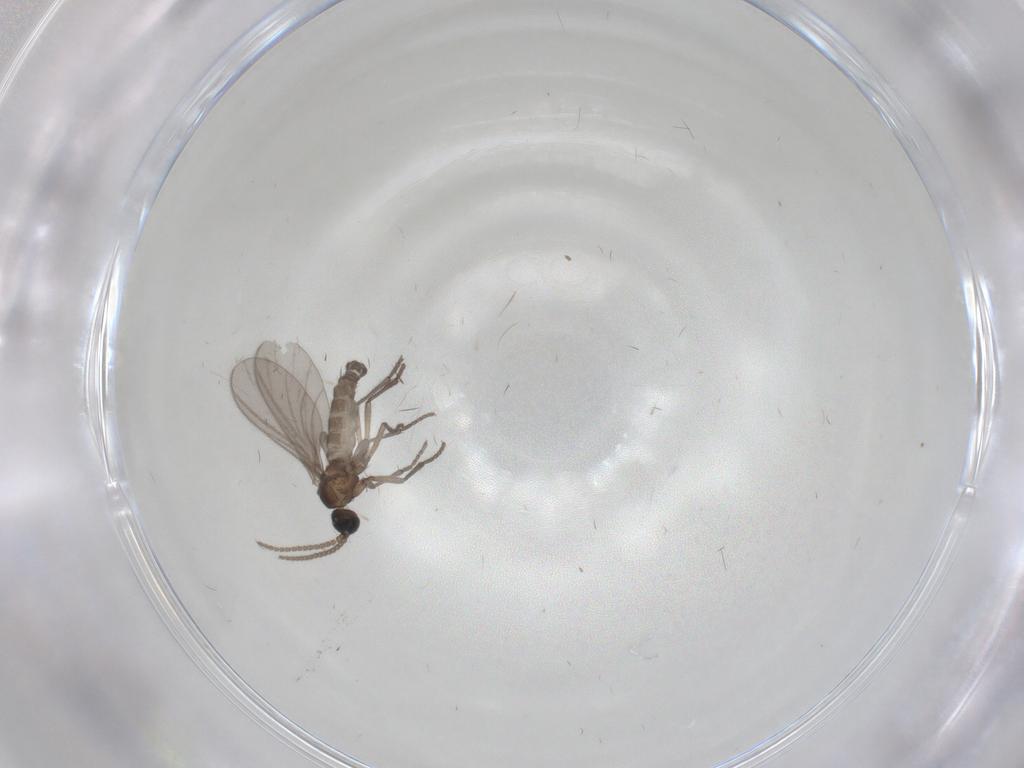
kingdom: Animalia
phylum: Arthropoda
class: Insecta
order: Diptera
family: Sciaridae
